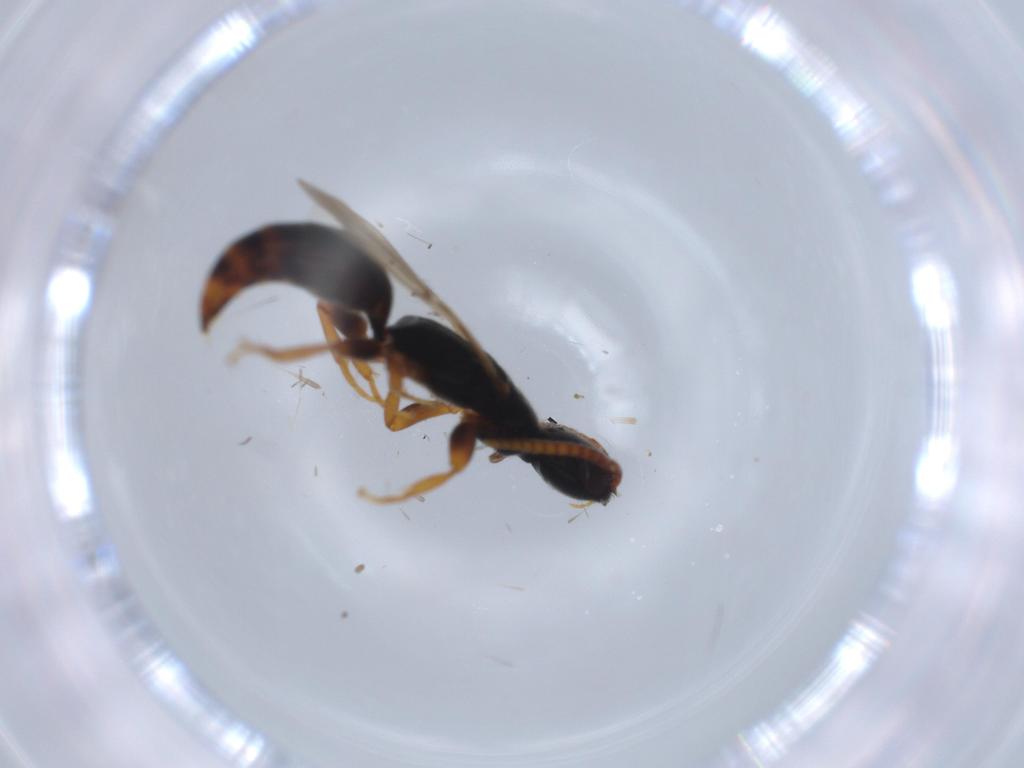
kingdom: Animalia
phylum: Arthropoda
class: Insecta
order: Hymenoptera
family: Bethylidae
